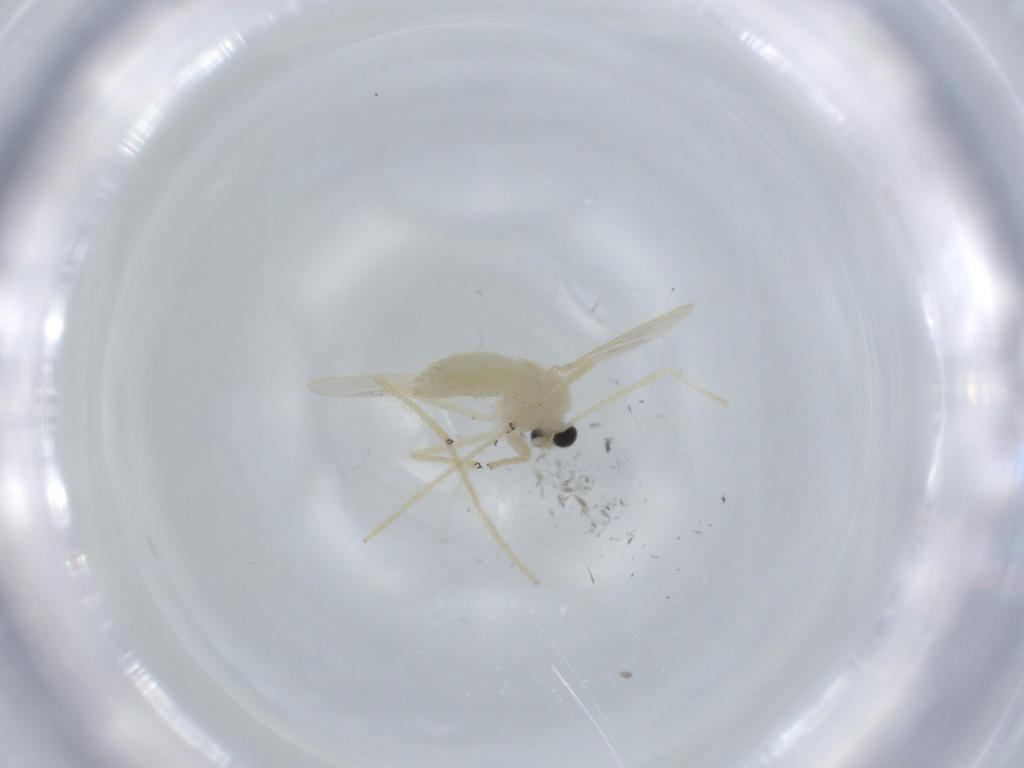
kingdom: Animalia
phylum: Arthropoda
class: Insecta
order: Diptera
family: Chironomidae
